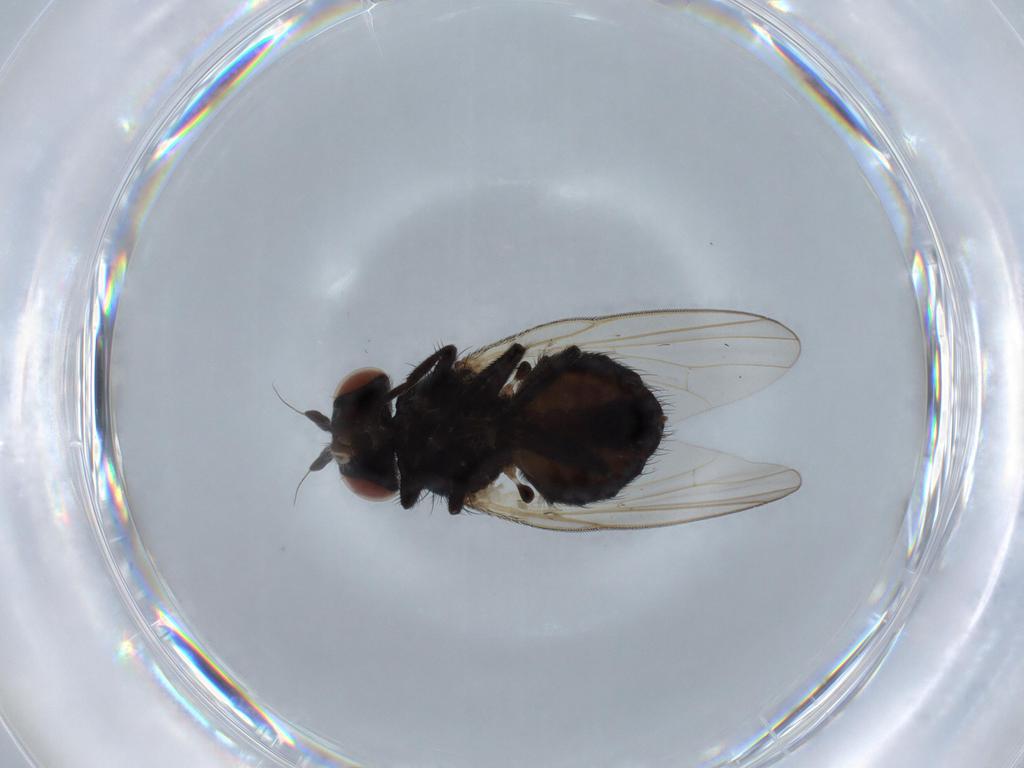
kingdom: Animalia
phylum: Arthropoda
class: Insecta
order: Diptera
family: Lonchaeidae
